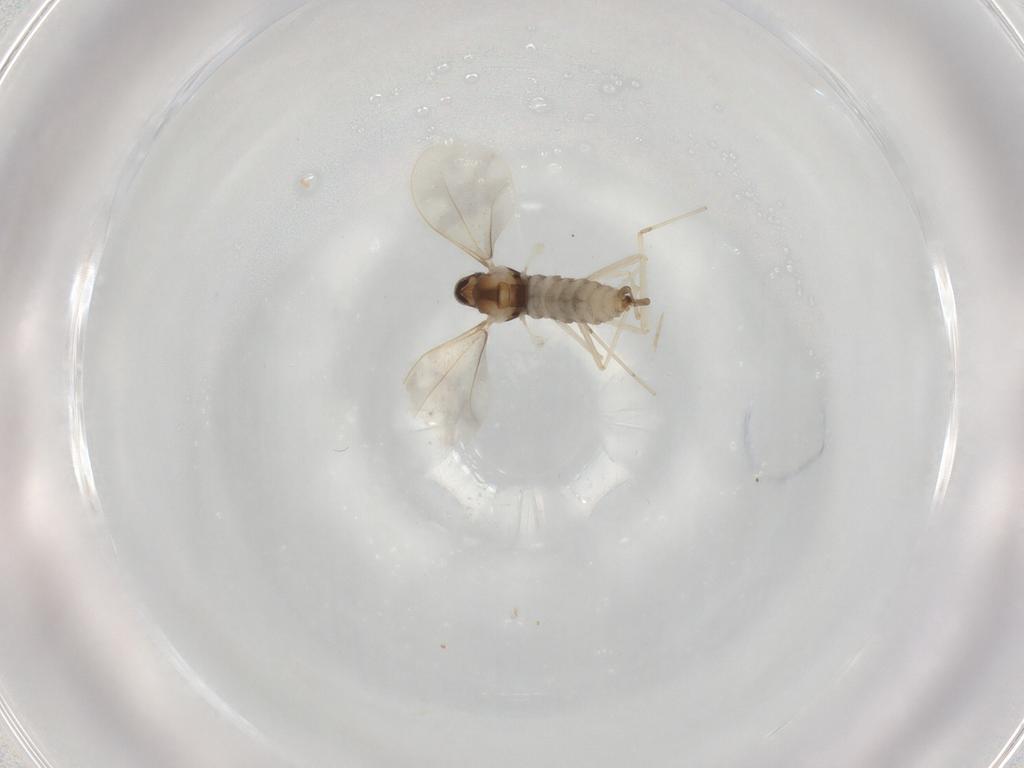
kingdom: Animalia
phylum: Arthropoda
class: Insecta
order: Diptera
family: Cecidomyiidae
